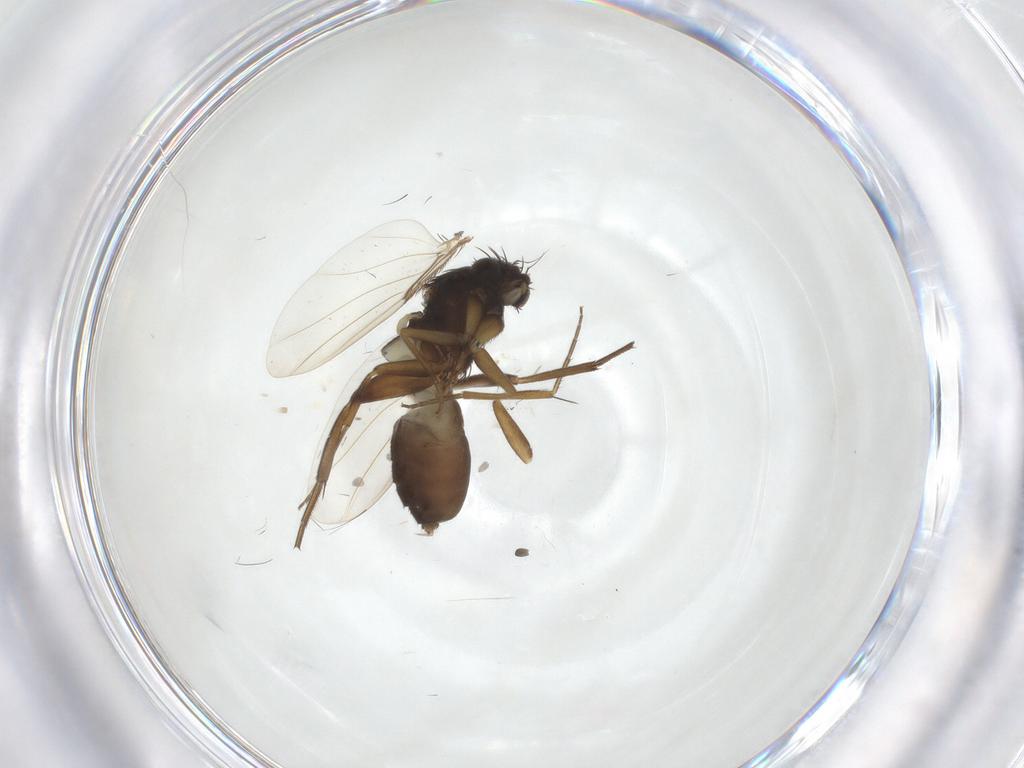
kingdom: Animalia
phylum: Arthropoda
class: Insecta
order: Diptera
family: Phoridae
